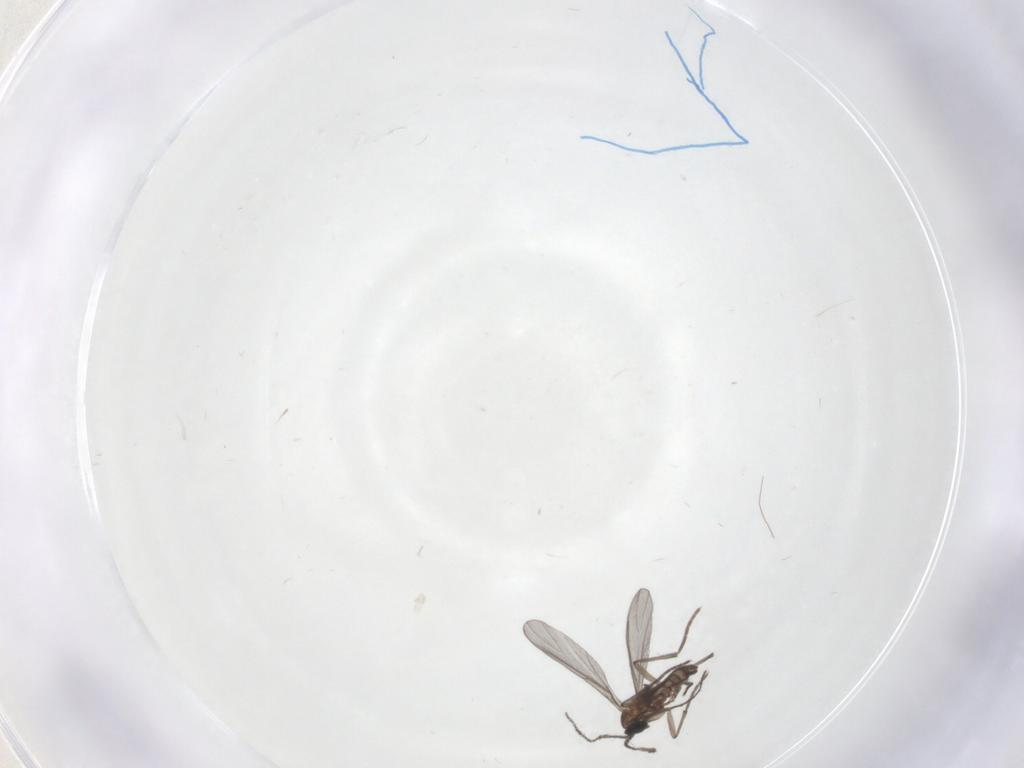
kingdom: Animalia
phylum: Arthropoda
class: Insecta
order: Diptera
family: Sciaridae
